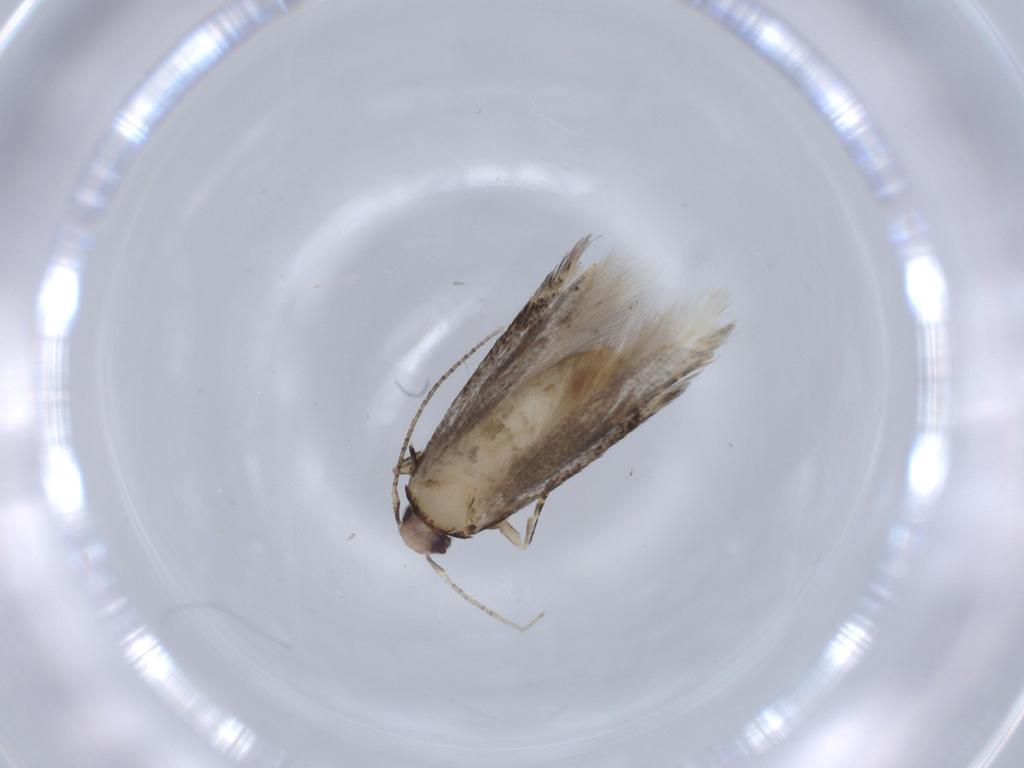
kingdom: Animalia
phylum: Arthropoda
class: Insecta
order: Lepidoptera
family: Stathmopodidae
